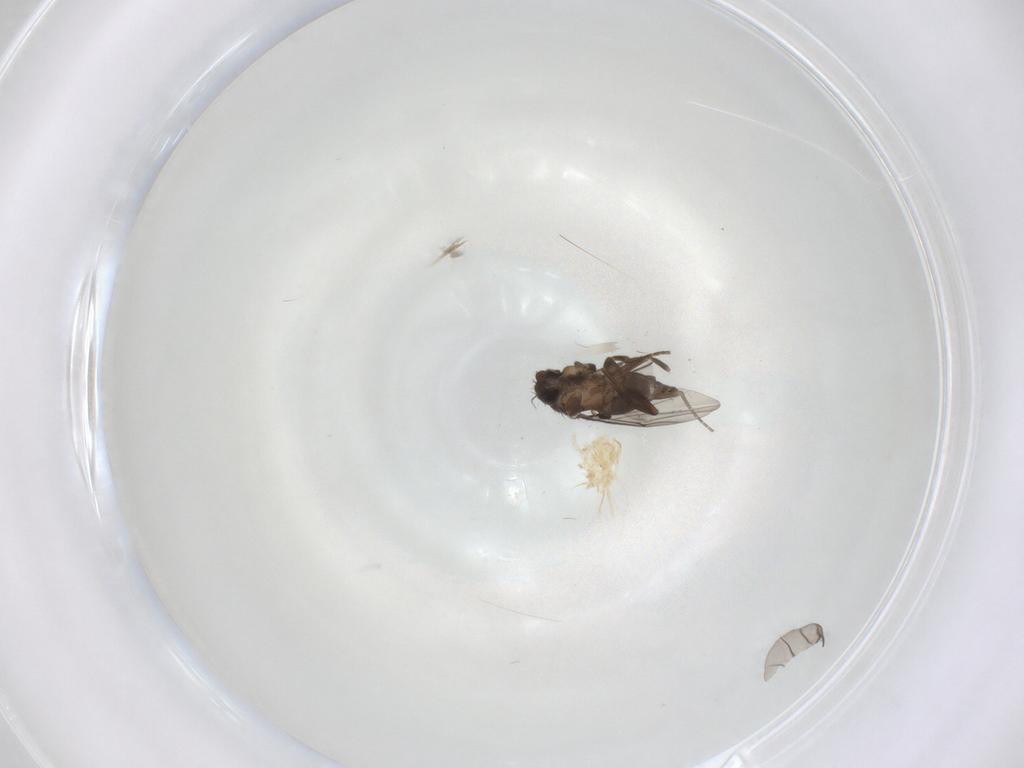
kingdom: Animalia
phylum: Arthropoda
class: Insecta
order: Diptera
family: Phoridae
